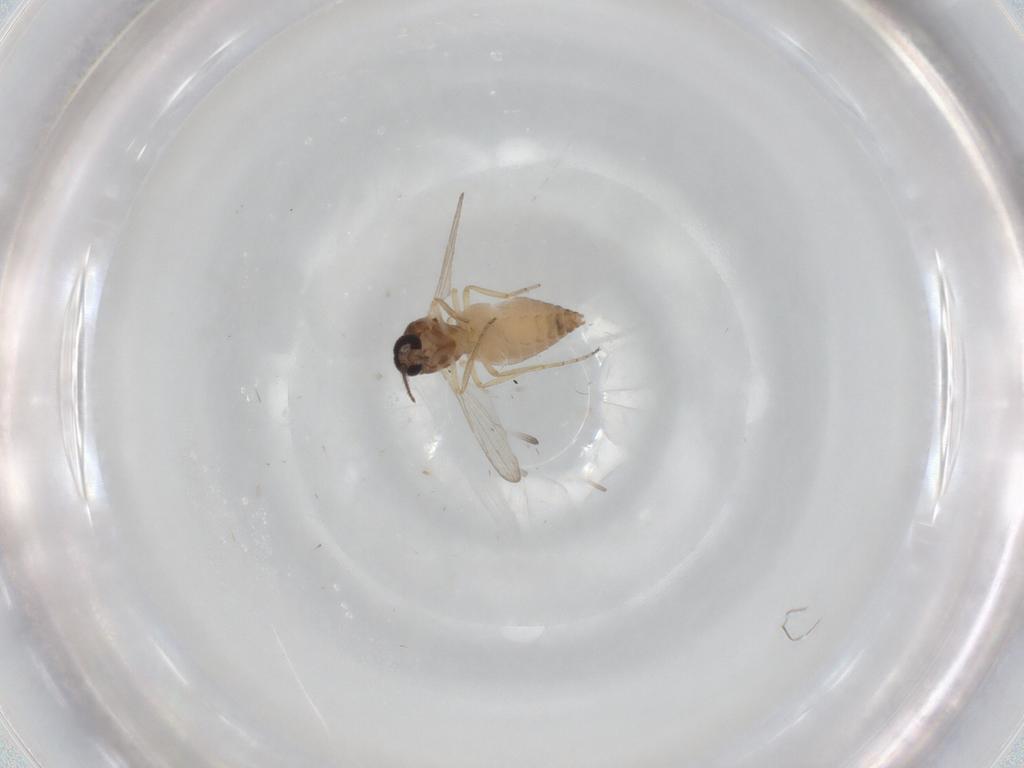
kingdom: Animalia
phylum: Arthropoda
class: Insecta
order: Diptera
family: Ceratopogonidae
